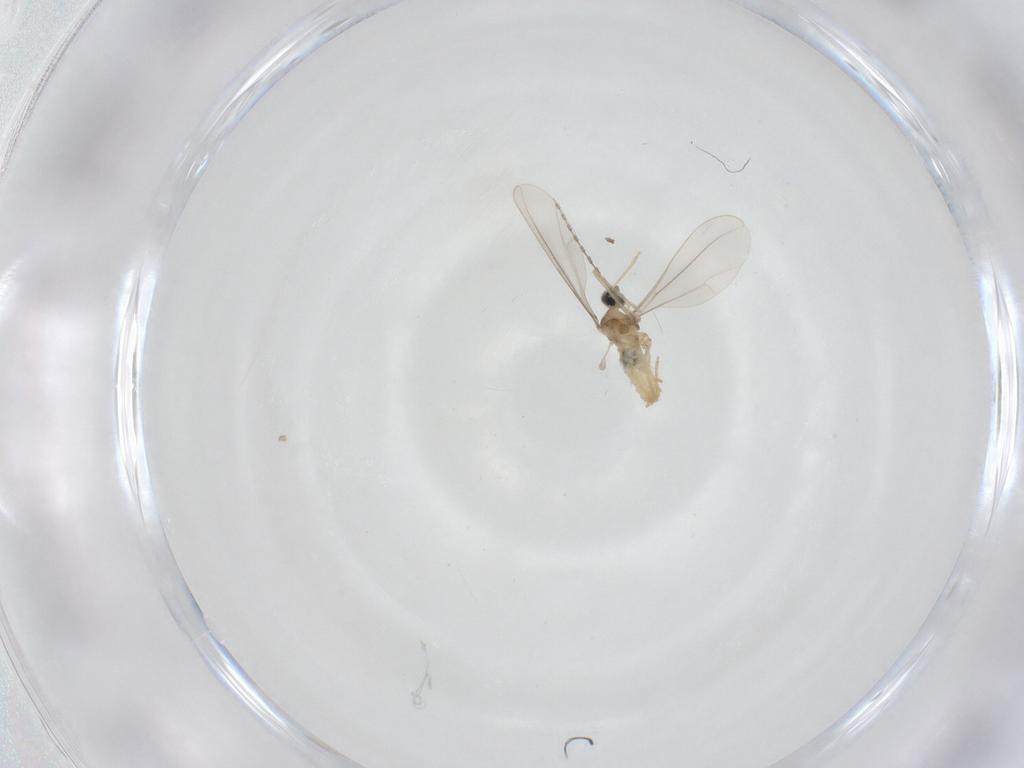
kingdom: Animalia
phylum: Arthropoda
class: Insecta
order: Diptera
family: Cecidomyiidae
